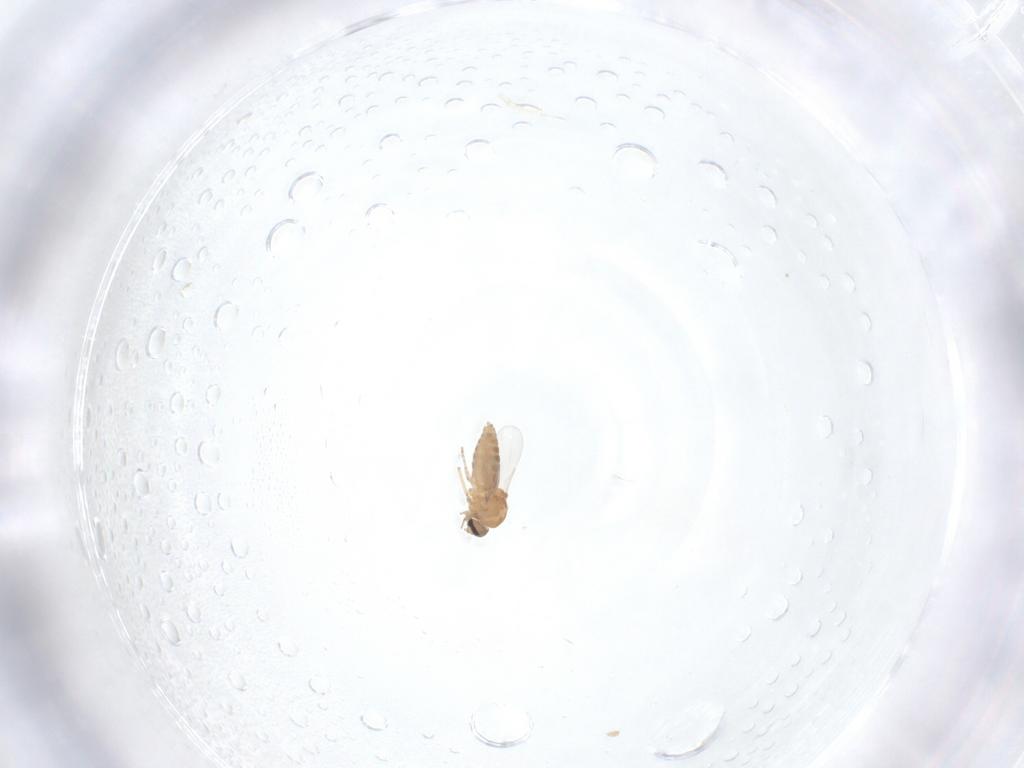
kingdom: Animalia
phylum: Arthropoda
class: Insecta
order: Diptera
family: Ceratopogonidae
